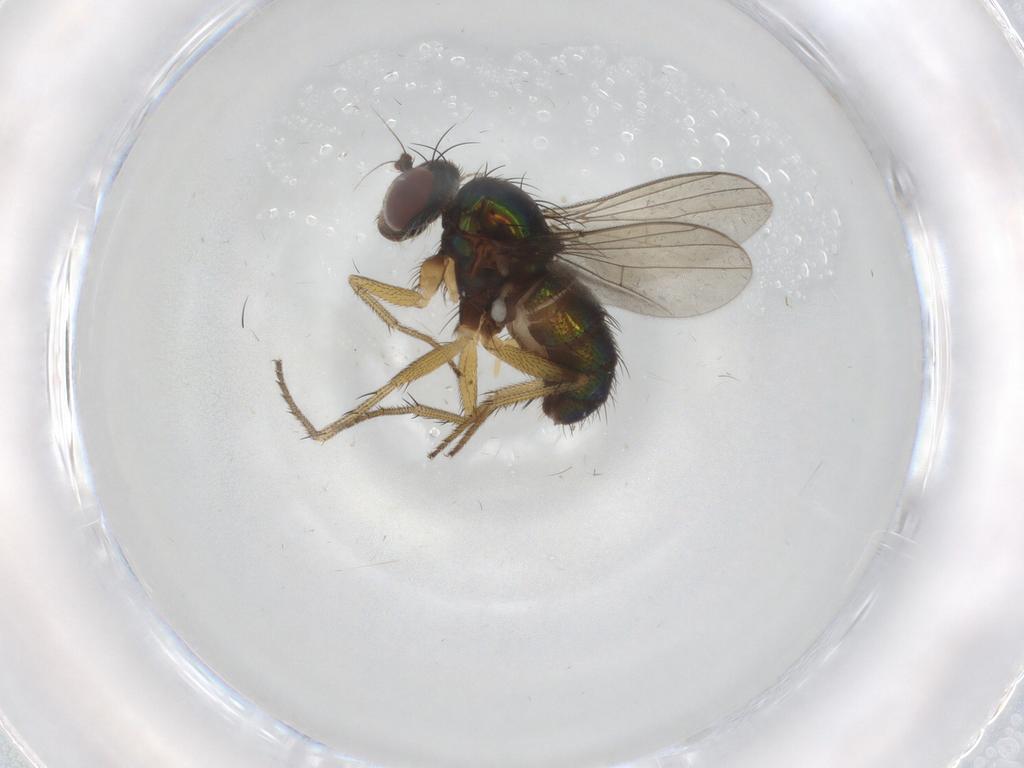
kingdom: Animalia
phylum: Arthropoda
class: Insecta
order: Diptera
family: Dolichopodidae
